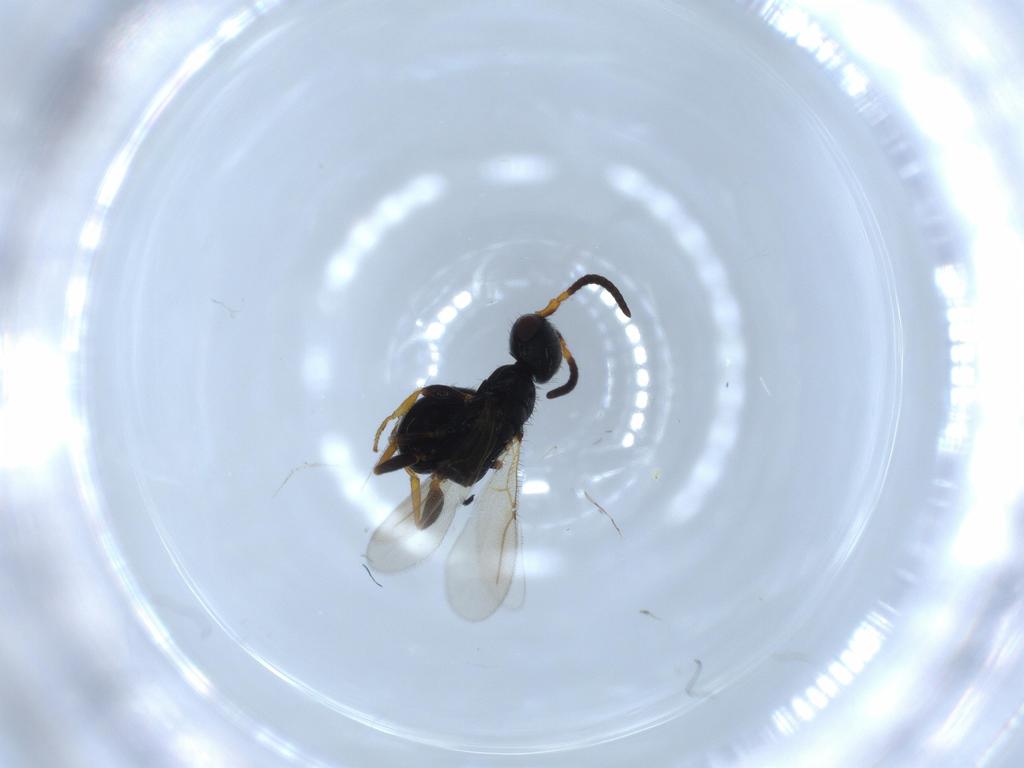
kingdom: Animalia
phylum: Arthropoda
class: Insecta
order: Hymenoptera
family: Bethylidae
